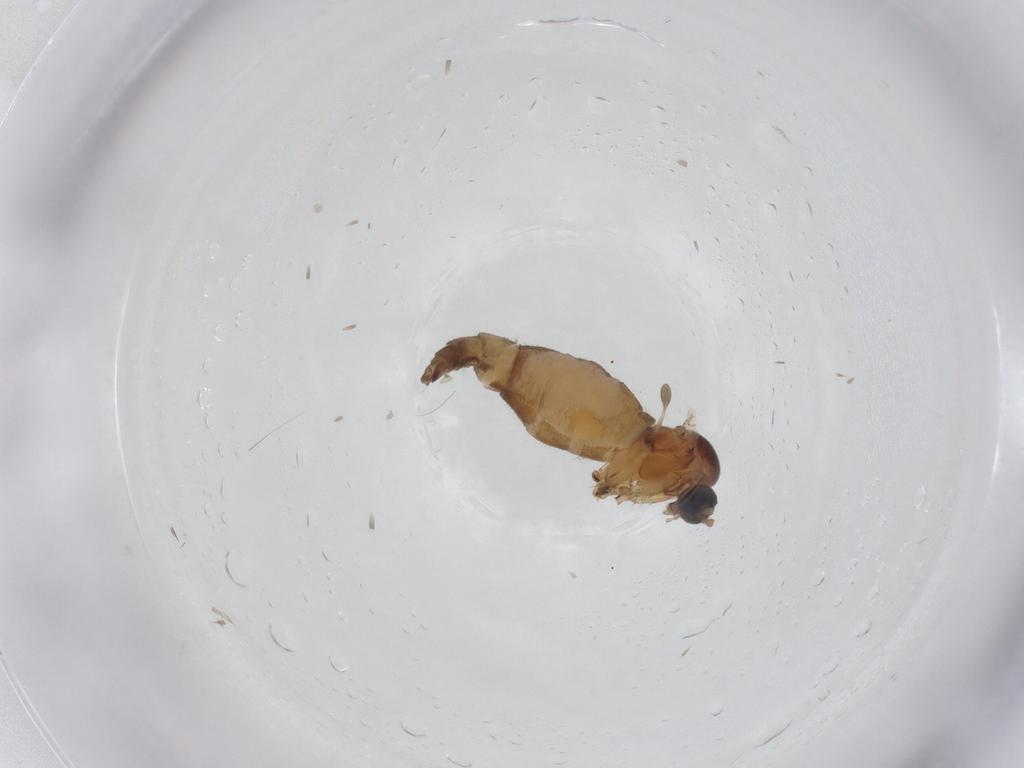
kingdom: Animalia
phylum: Arthropoda
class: Insecta
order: Diptera
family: Sciaridae
